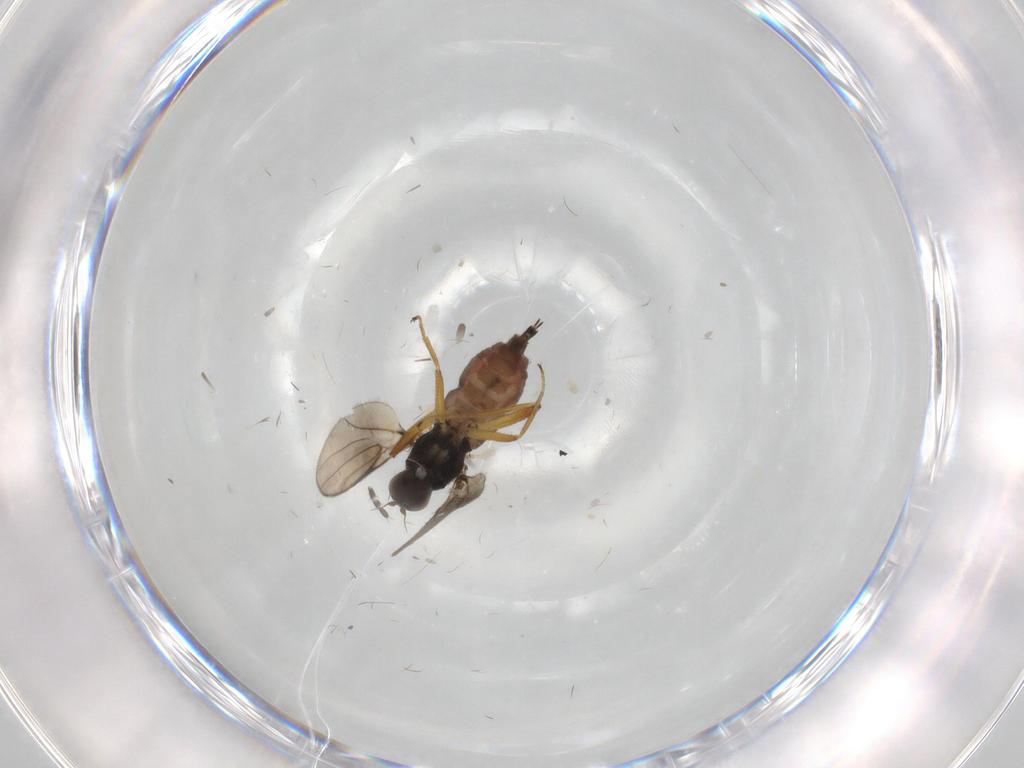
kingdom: Animalia
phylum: Arthropoda
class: Insecta
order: Diptera
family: Hybotidae
